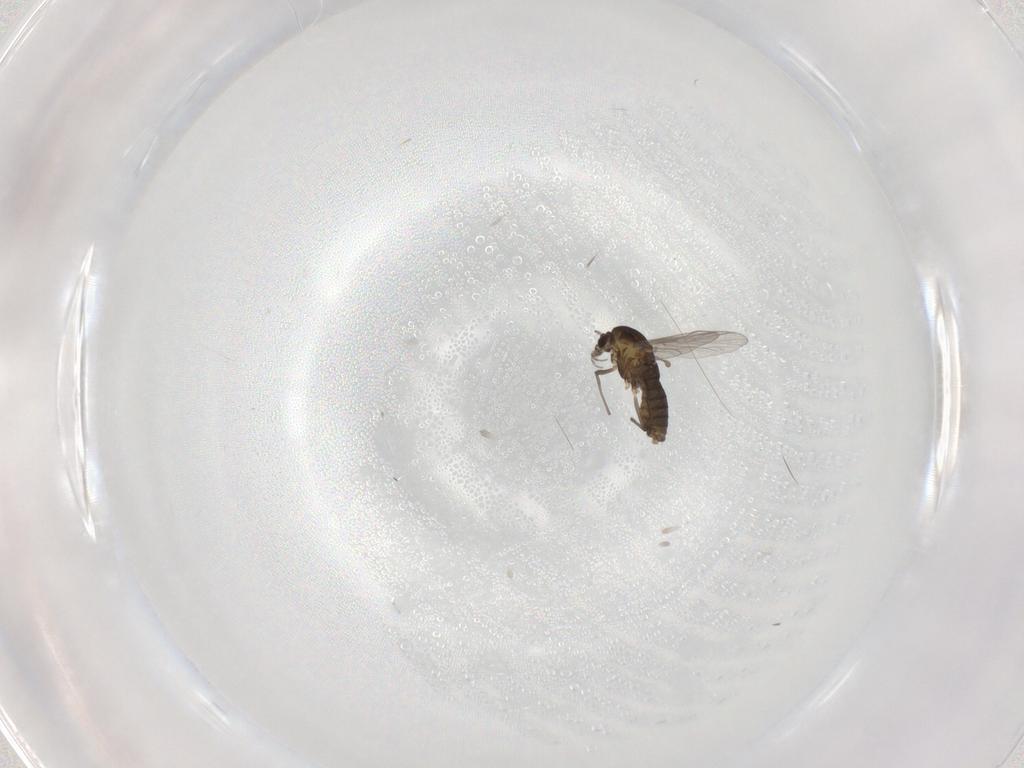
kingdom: Animalia
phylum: Arthropoda
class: Insecta
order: Diptera
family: Chironomidae
